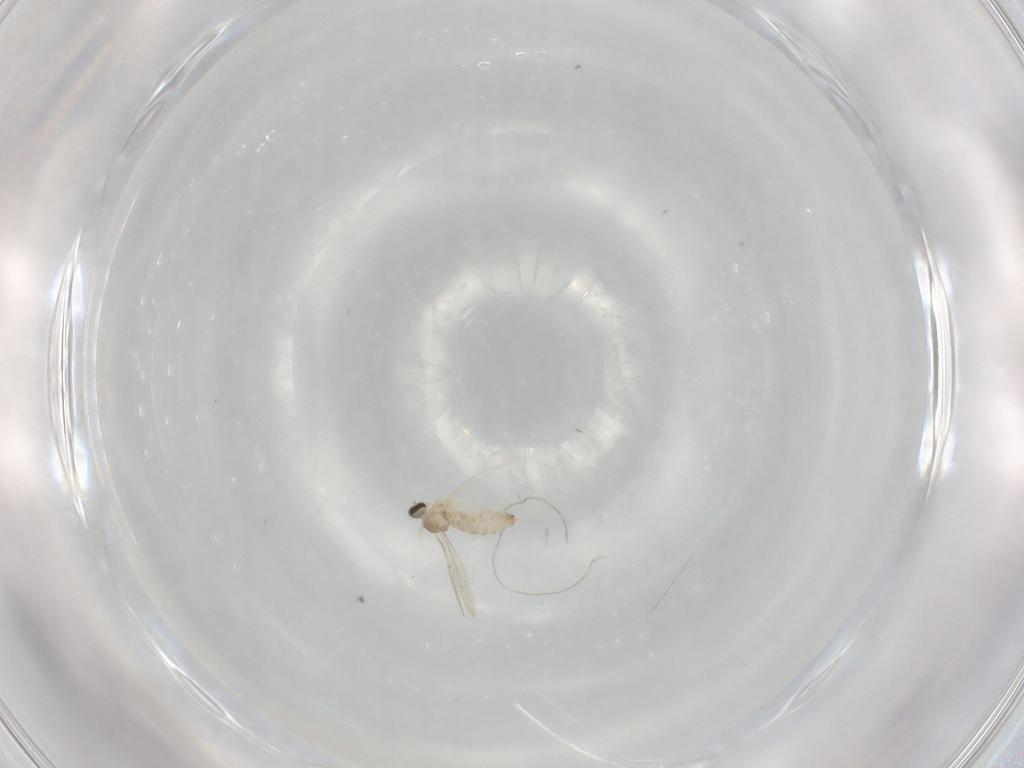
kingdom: Animalia
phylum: Arthropoda
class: Insecta
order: Diptera
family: Cecidomyiidae
